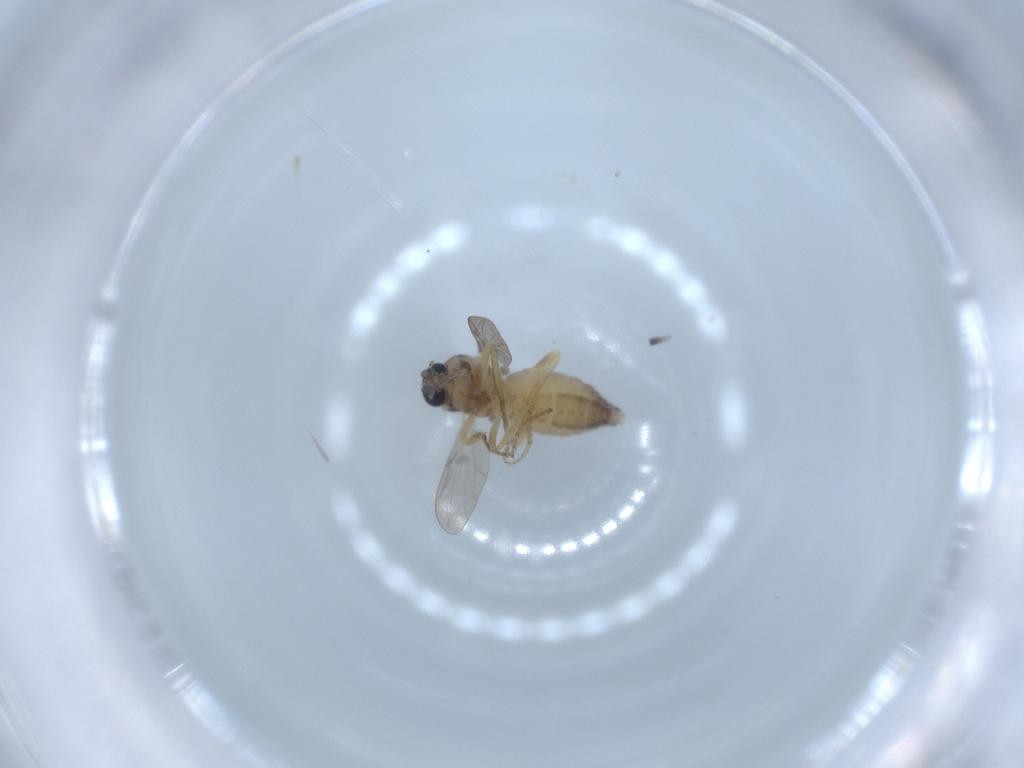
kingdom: Animalia
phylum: Arthropoda
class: Insecta
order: Diptera
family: Ceratopogonidae
